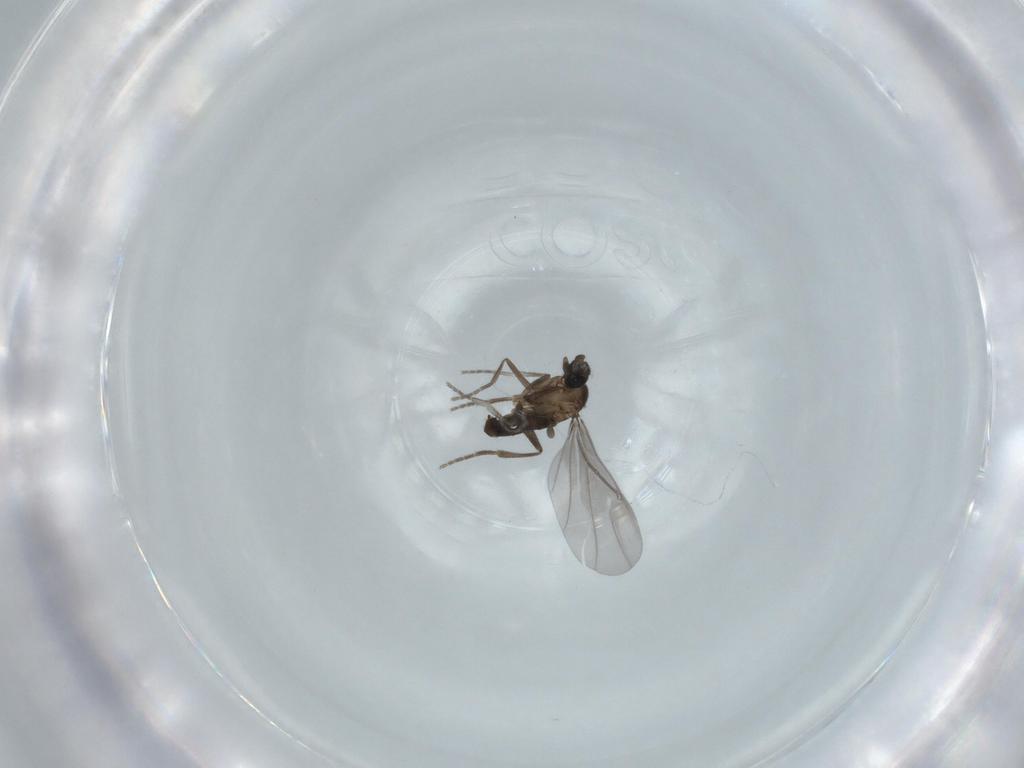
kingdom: Animalia
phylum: Arthropoda
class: Insecta
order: Diptera
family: Phoridae
